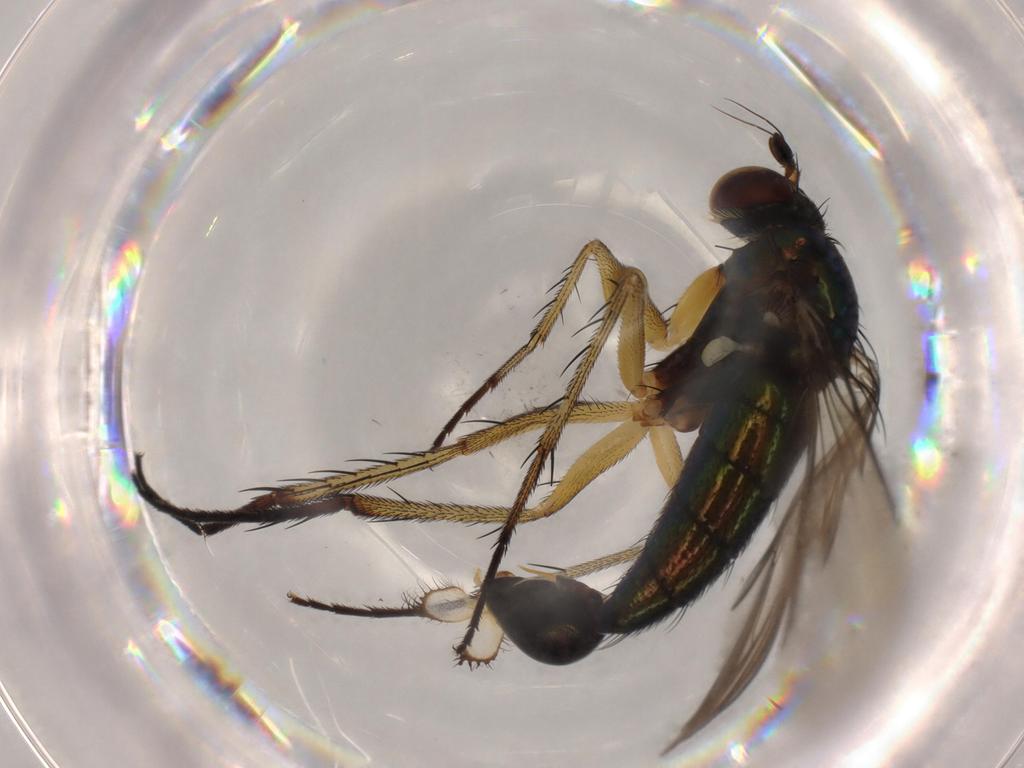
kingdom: Animalia
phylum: Arthropoda
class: Insecta
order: Diptera
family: Dolichopodidae
